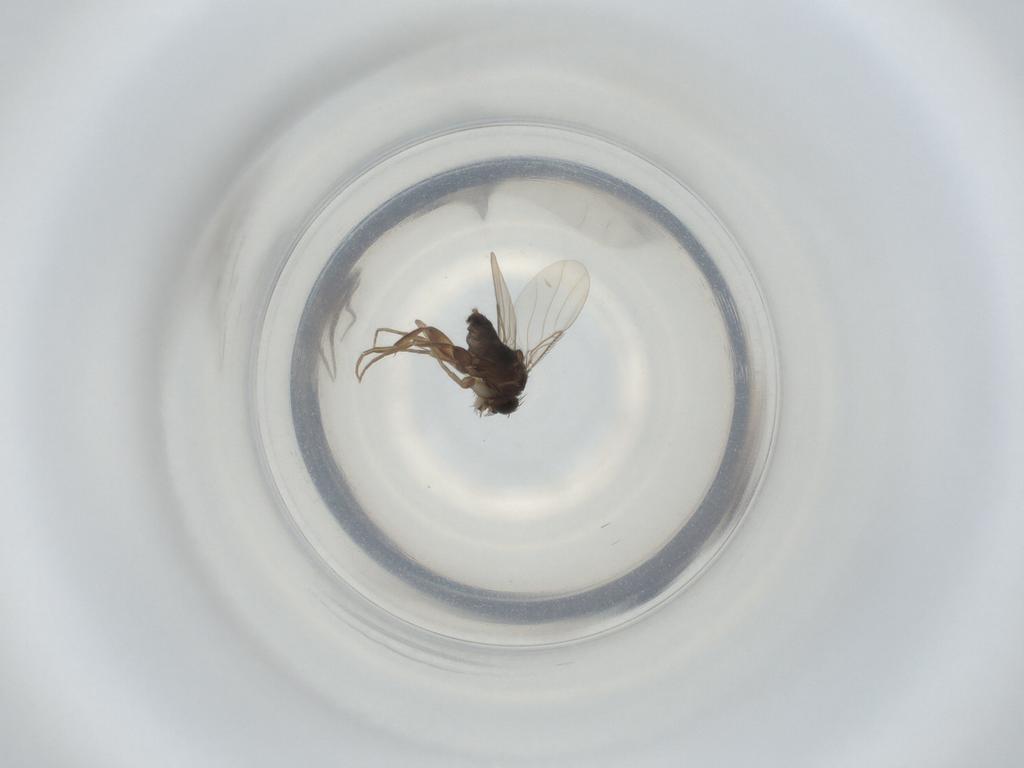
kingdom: Animalia
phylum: Arthropoda
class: Insecta
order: Diptera
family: Phoridae
